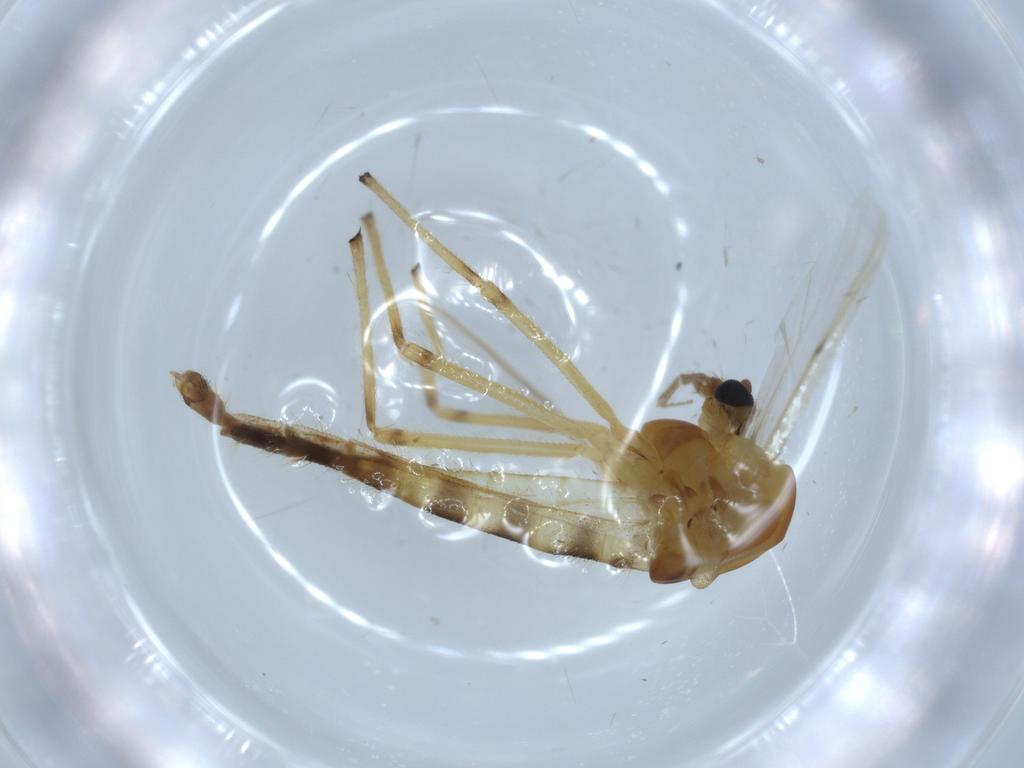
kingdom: Animalia
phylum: Arthropoda
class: Insecta
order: Diptera
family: Chironomidae
